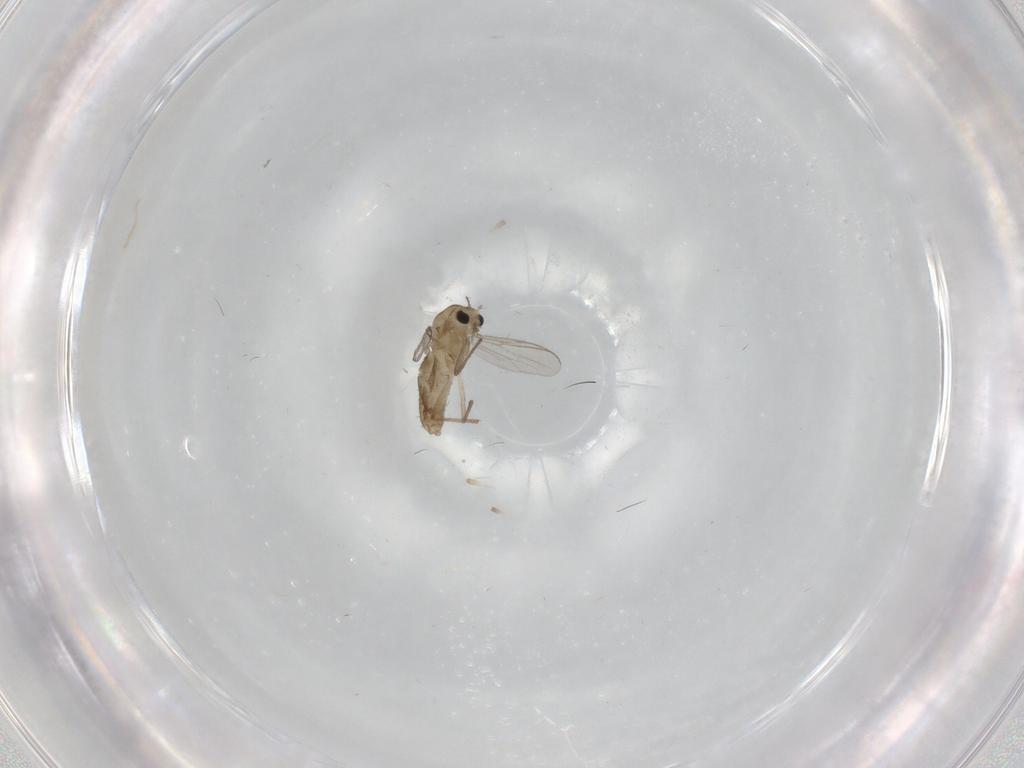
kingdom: Animalia
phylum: Arthropoda
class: Insecta
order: Diptera
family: Chironomidae
